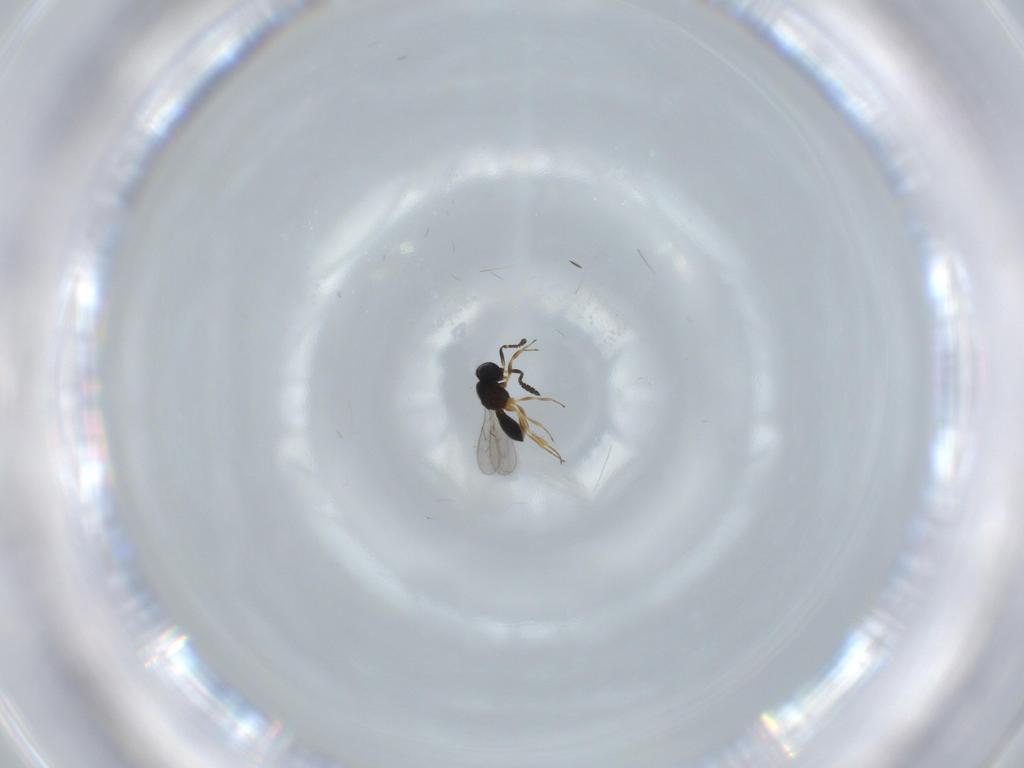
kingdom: Animalia
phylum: Arthropoda
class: Insecta
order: Hymenoptera
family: Scelionidae
